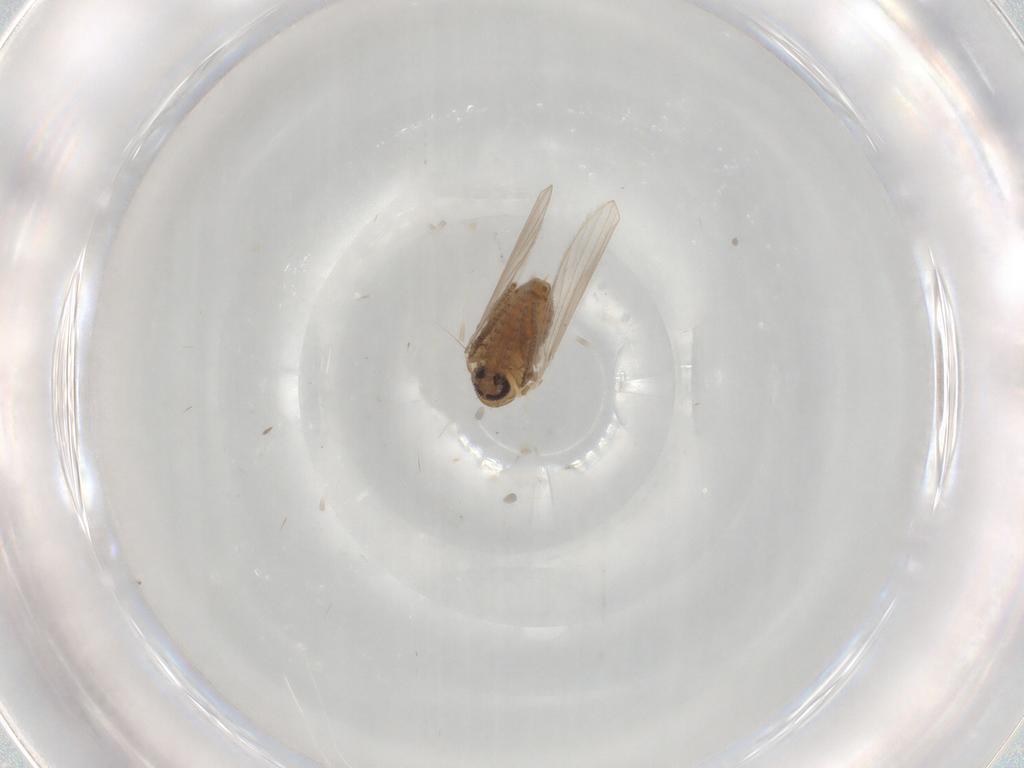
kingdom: Animalia
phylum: Arthropoda
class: Insecta
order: Diptera
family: Psychodidae
